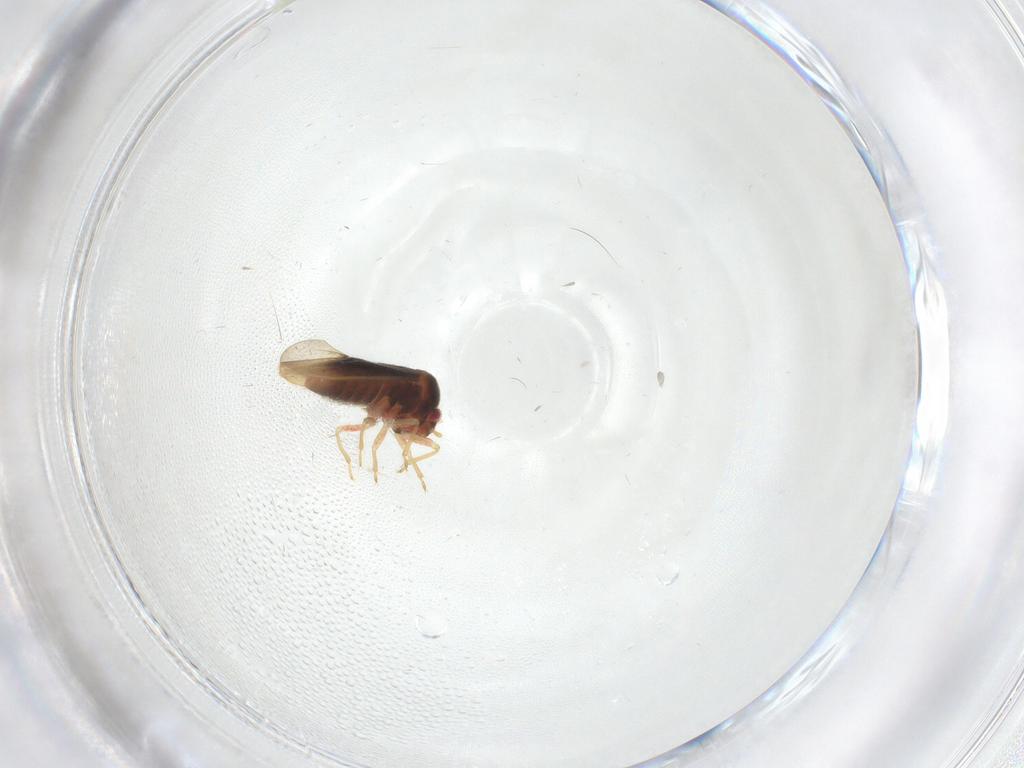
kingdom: Animalia
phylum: Arthropoda
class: Insecta
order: Hemiptera
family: Schizopteridae
